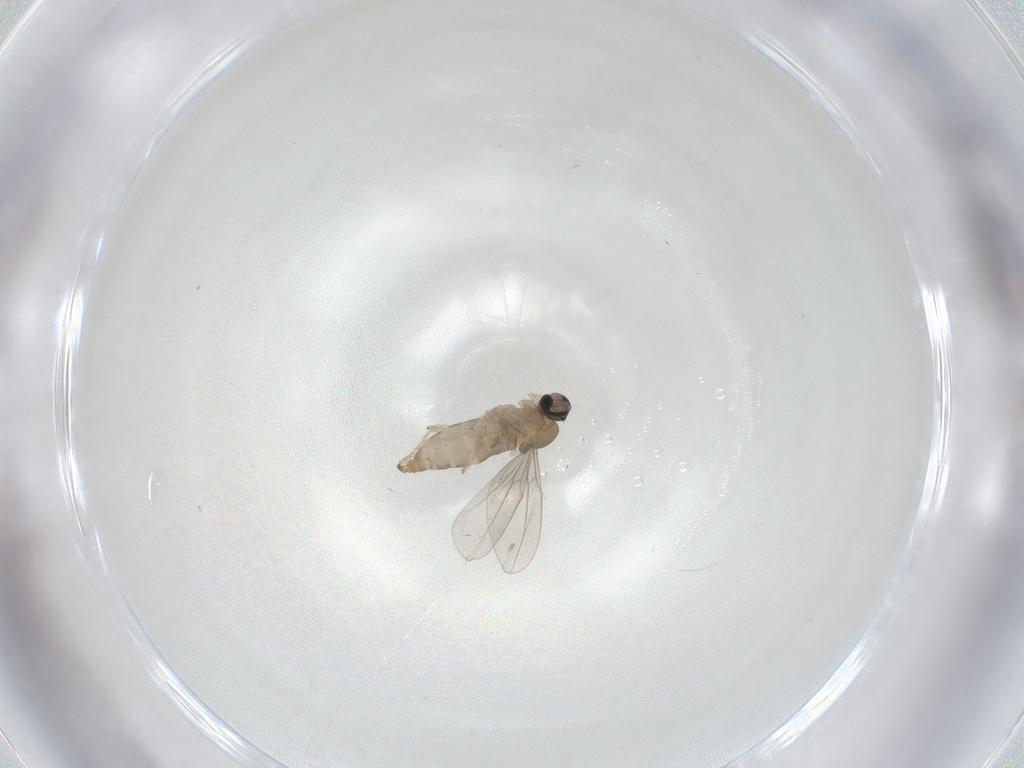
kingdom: Animalia
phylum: Arthropoda
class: Insecta
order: Diptera
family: Cecidomyiidae
